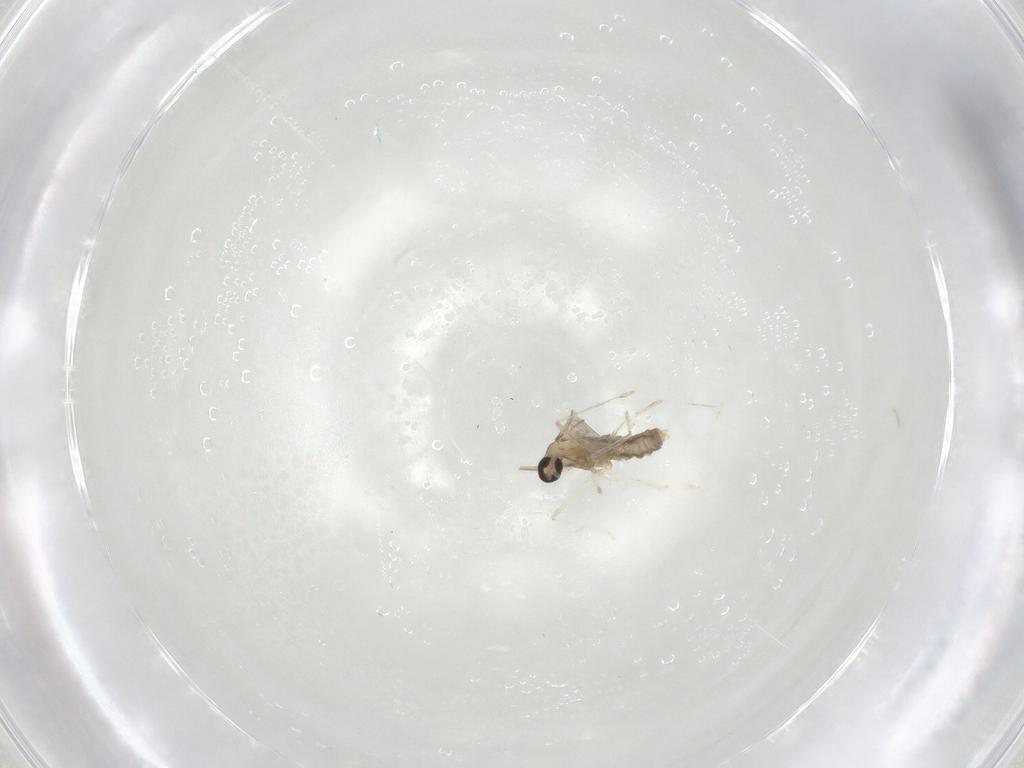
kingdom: Animalia
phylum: Arthropoda
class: Insecta
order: Diptera
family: Cecidomyiidae
